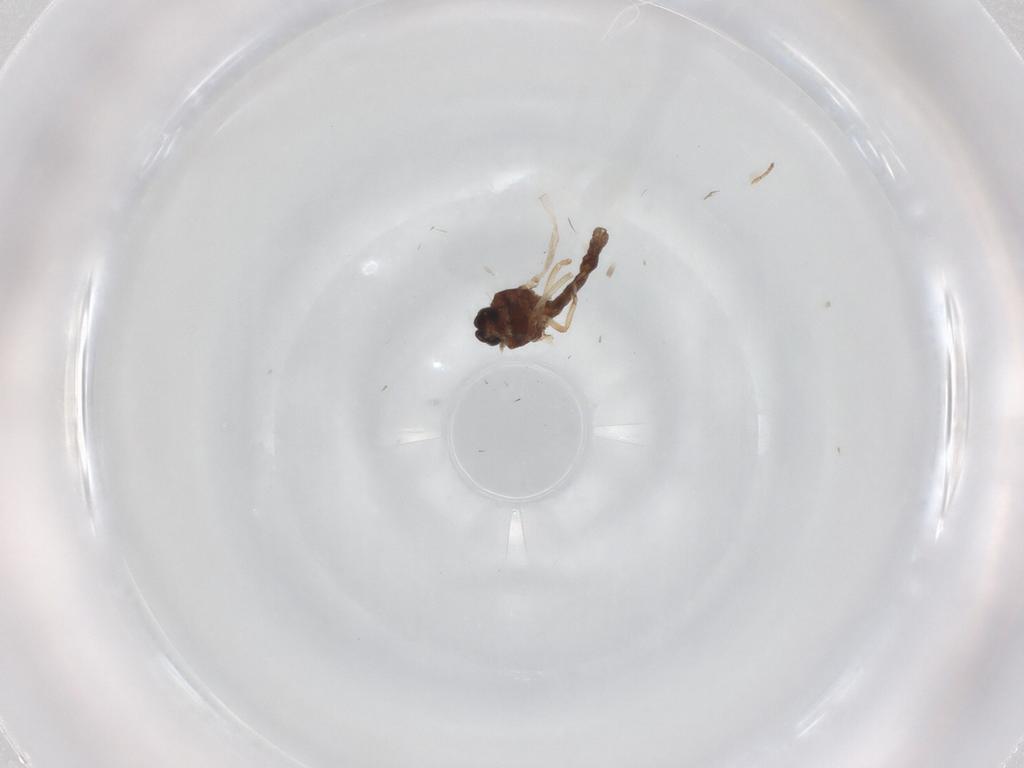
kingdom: Animalia
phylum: Arthropoda
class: Insecta
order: Diptera
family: Ceratopogonidae
